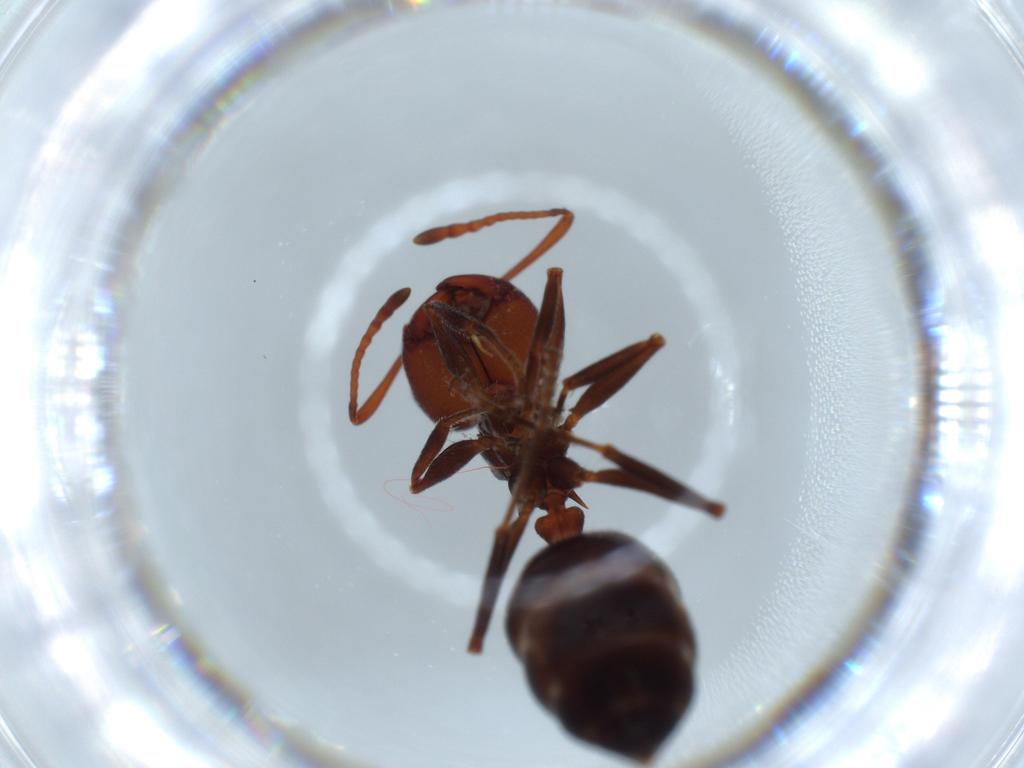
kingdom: Animalia
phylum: Arthropoda
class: Insecta
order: Hymenoptera
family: Formicidae
